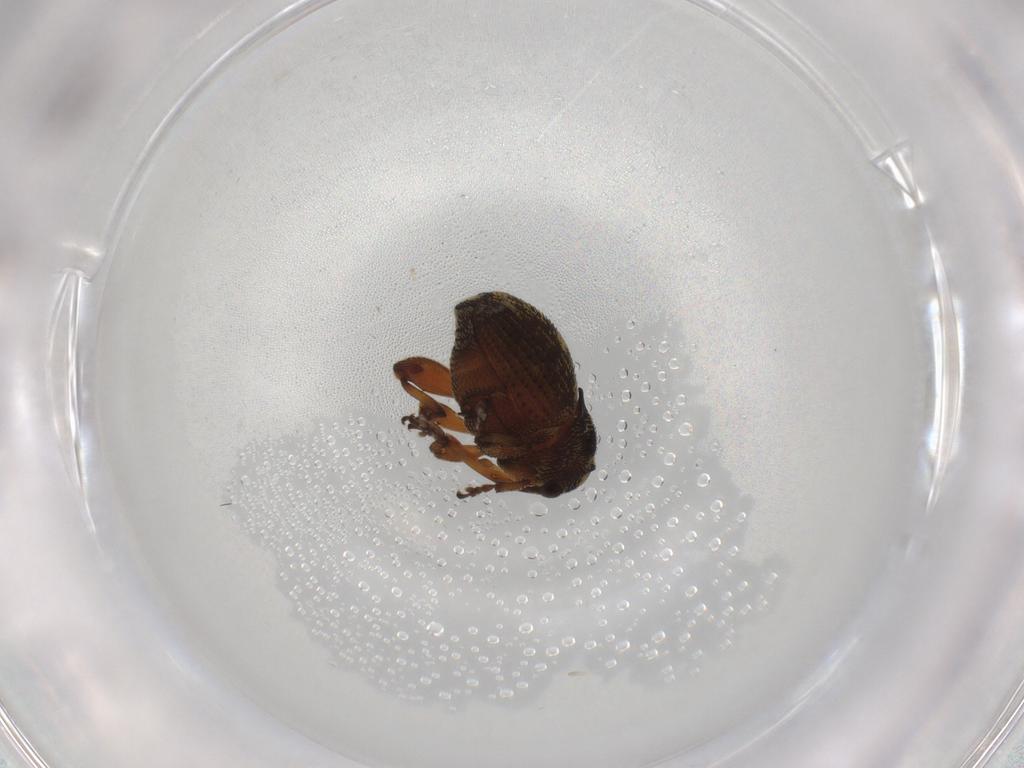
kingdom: Animalia
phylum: Arthropoda
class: Insecta
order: Coleoptera
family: Curculionidae
